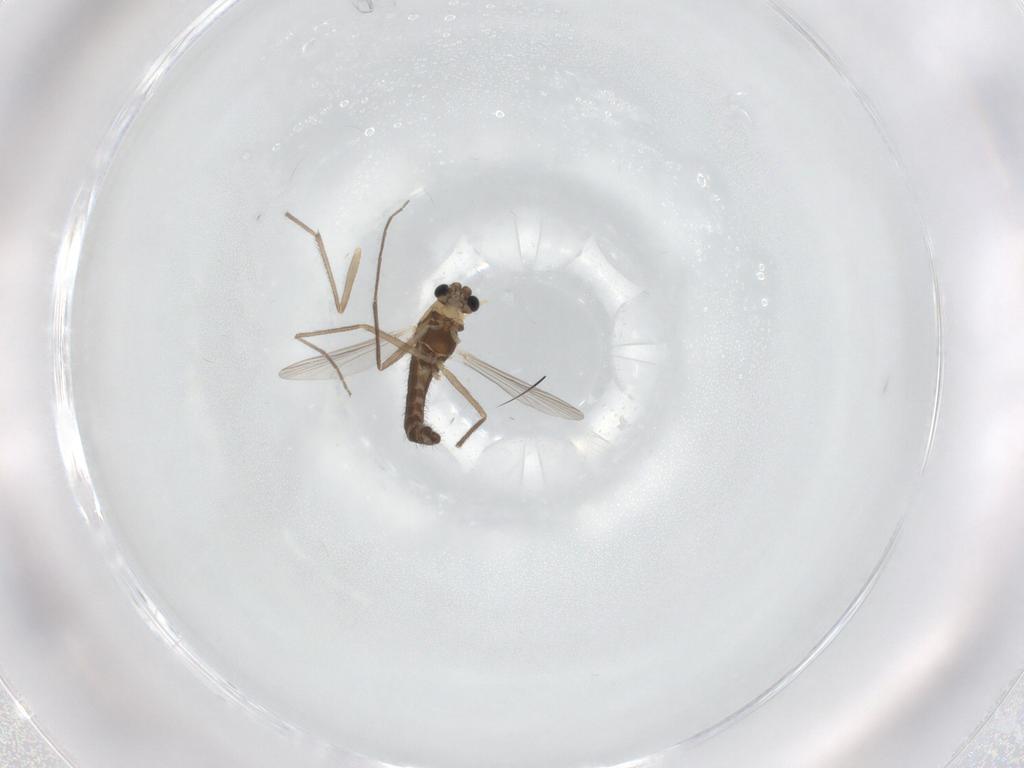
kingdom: Animalia
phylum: Arthropoda
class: Insecta
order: Diptera
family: Chironomidae
